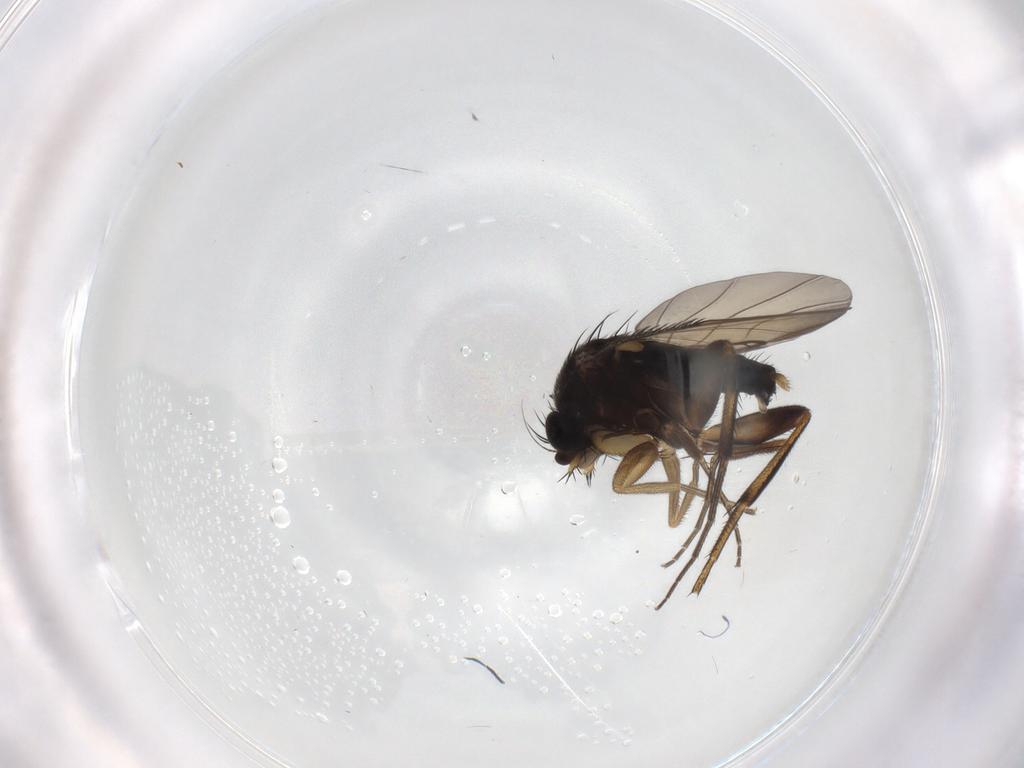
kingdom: Animalia
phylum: Arthropoda
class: Insecta
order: Diptera
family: Phoridae
